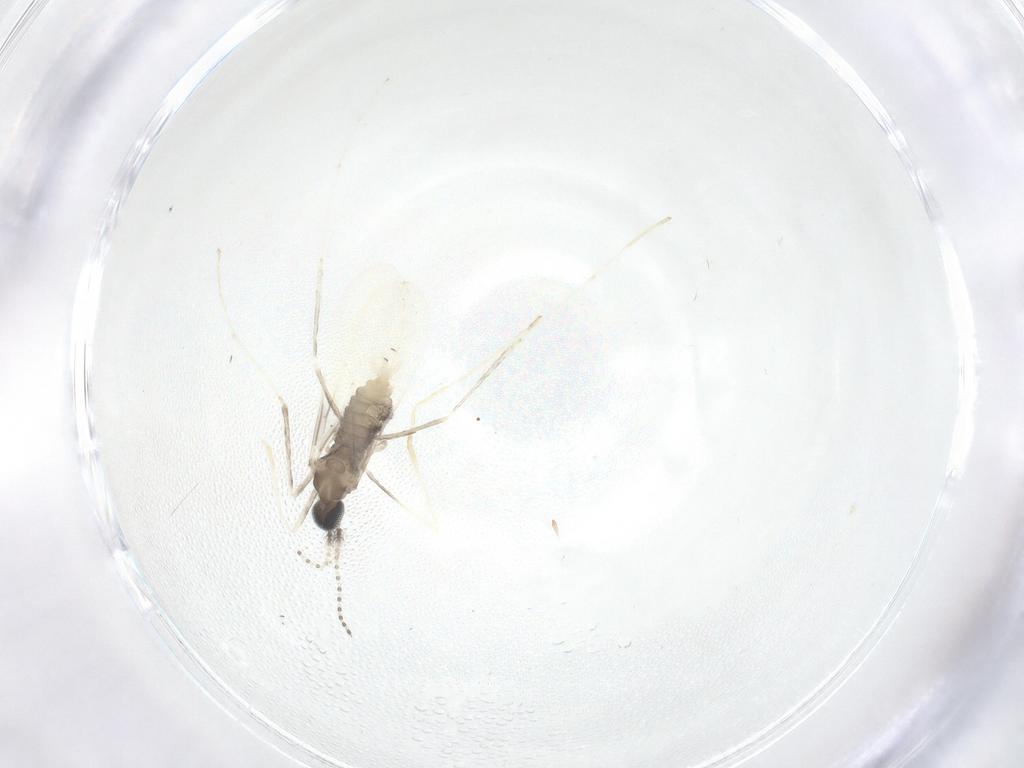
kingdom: Animalia
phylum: Arthropoda
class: Insecta
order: Diptera
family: Cecidomyiidae
